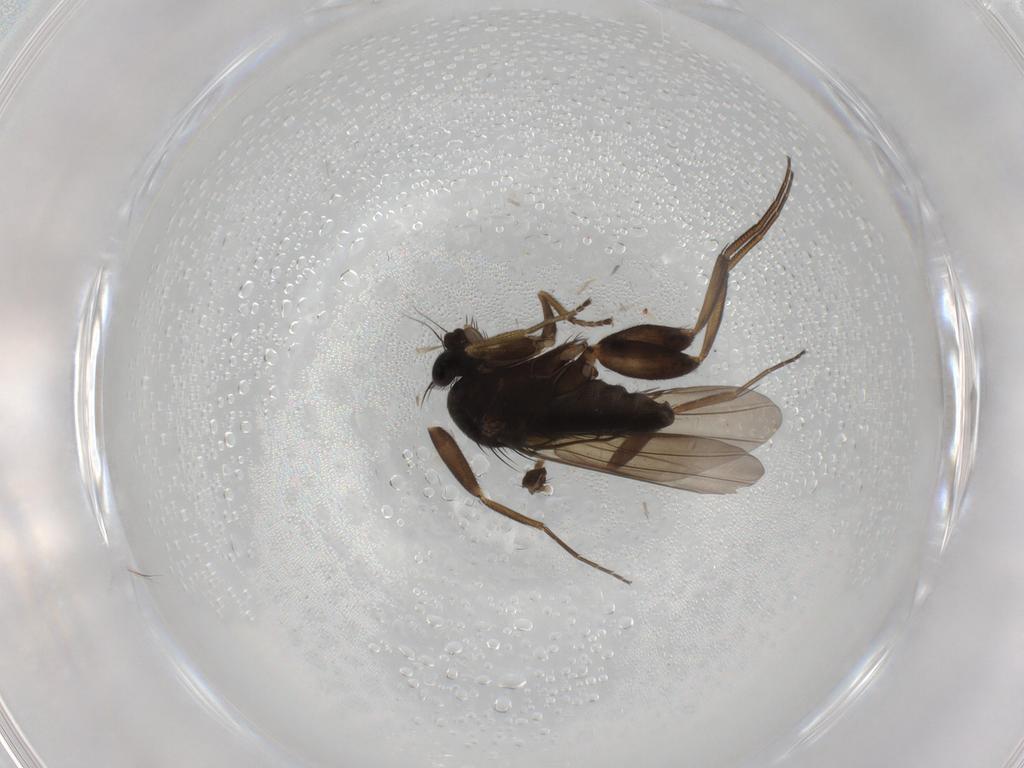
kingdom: Animalia
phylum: Arthropoda
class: Insecta
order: Diptera
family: Phoridae
